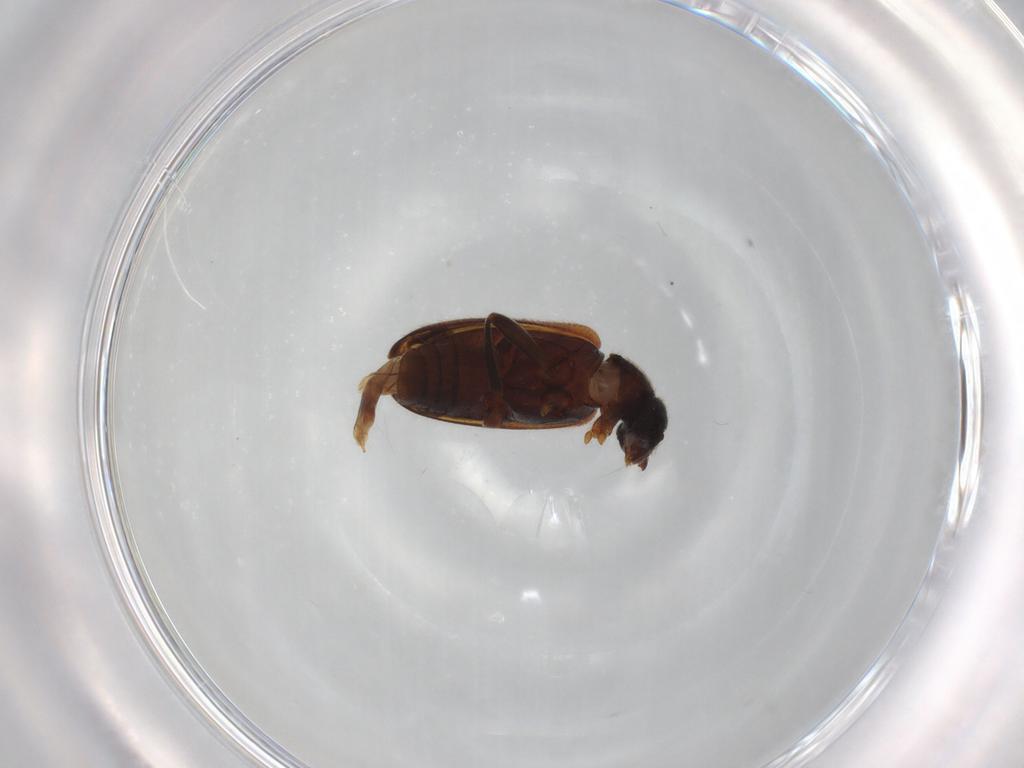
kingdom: Animalia
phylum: Arthropoda
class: Insecta
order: Coleoptera
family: Aderidae
